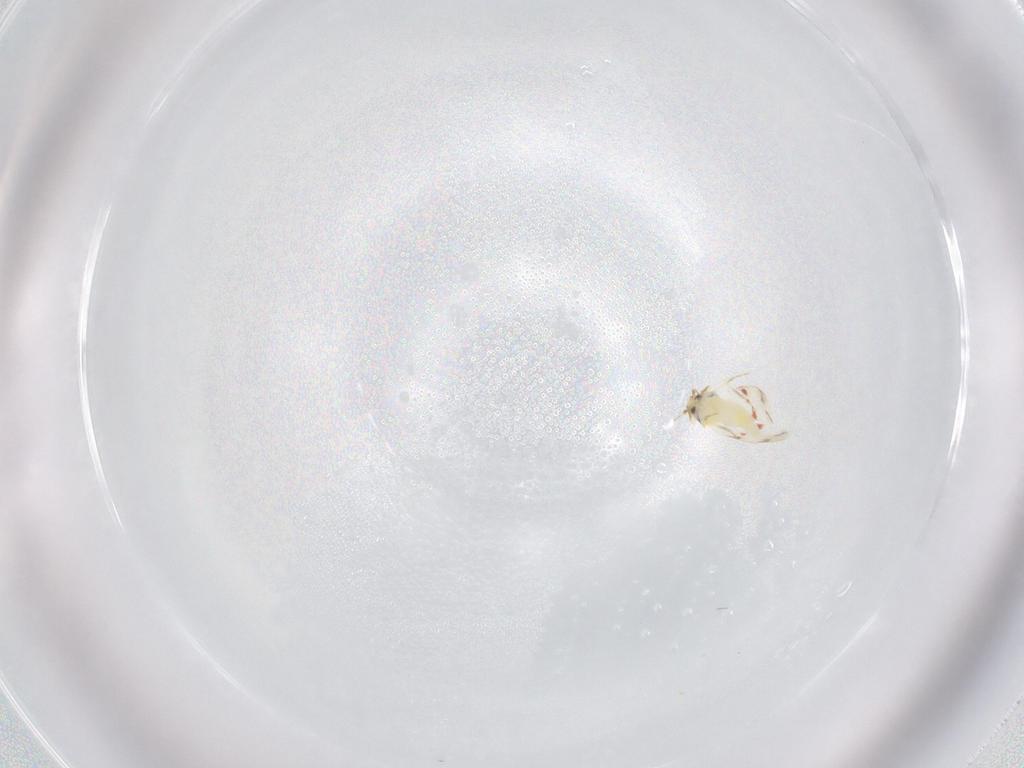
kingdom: Animalia
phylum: Arthropoda
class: Insecta
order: Hemiptera
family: Aleyrodidae
